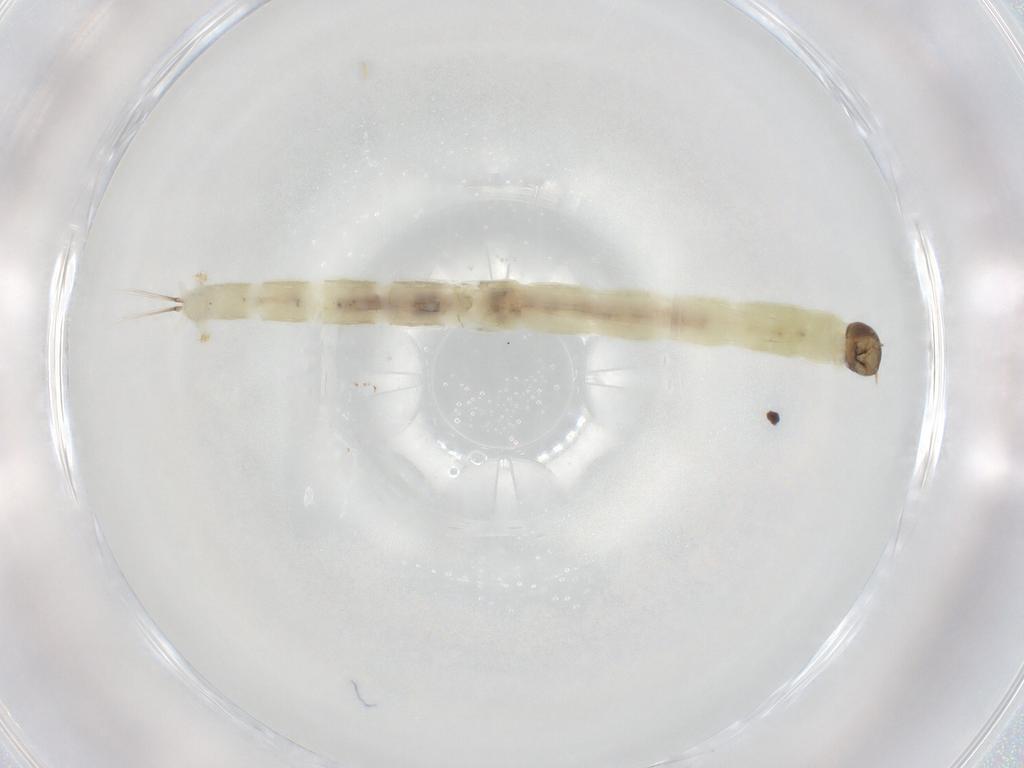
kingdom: Animalia
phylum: Arthropoda
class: Insecta
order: Diptera
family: Chironomidae
